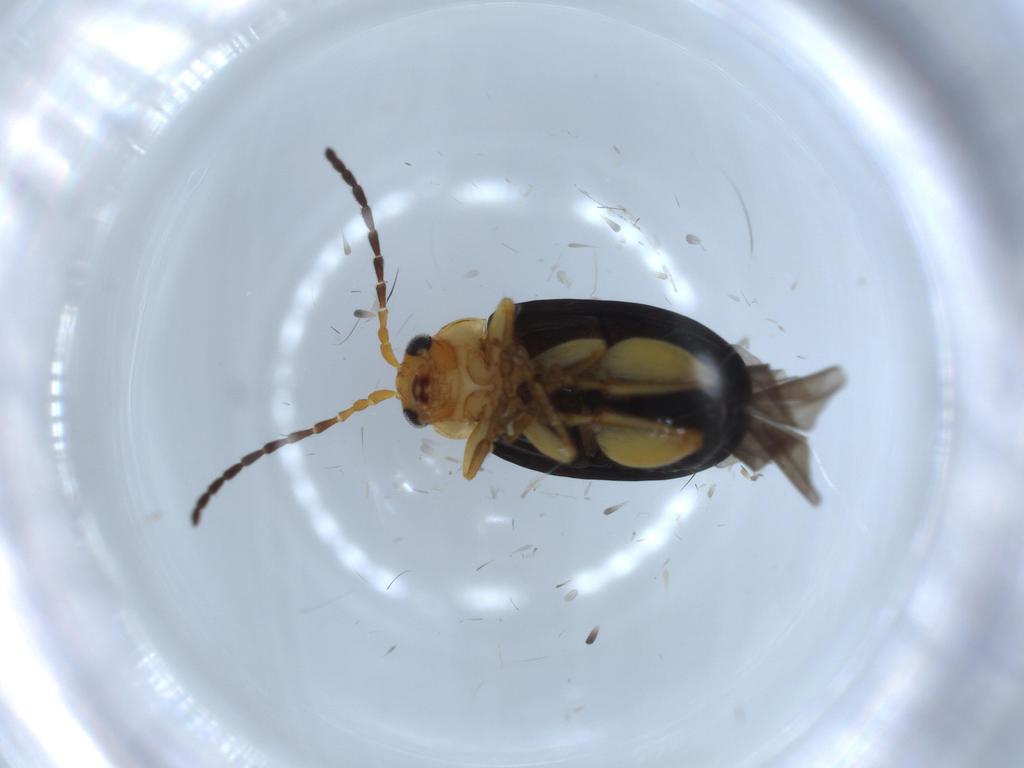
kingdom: Animalia
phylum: Arthropoda
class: Insecta
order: Coleoptera
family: Chrysomelidae
